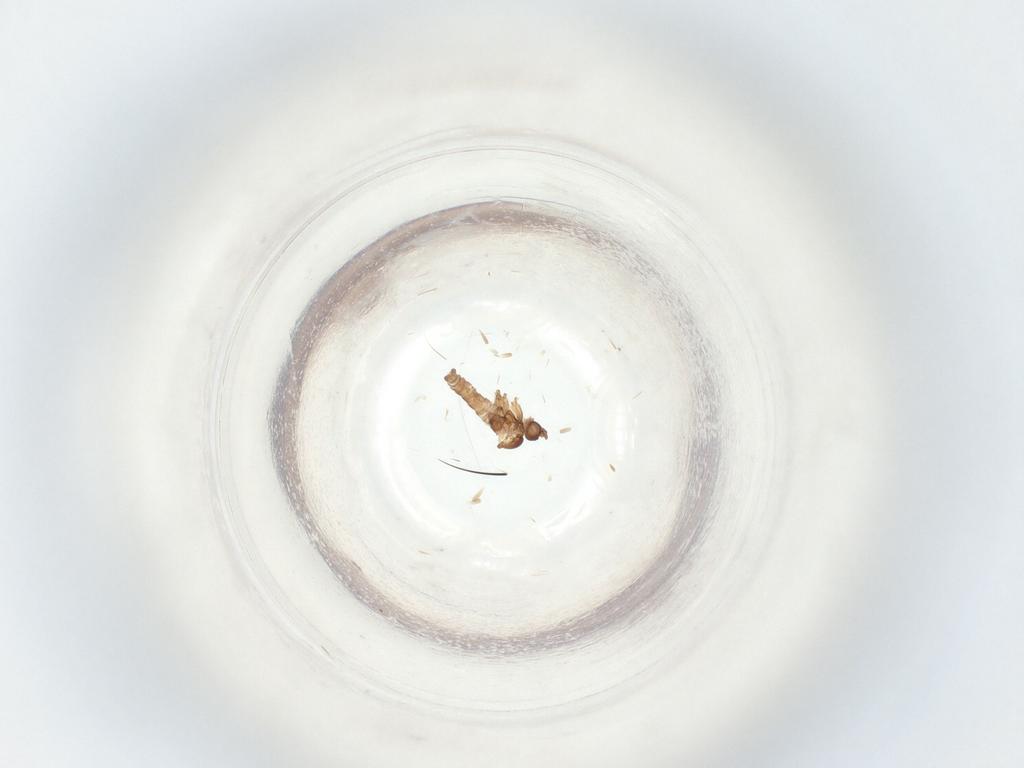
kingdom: Animalia
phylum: Arthropoda
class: Insecta
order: Diptera
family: Sciaridae
